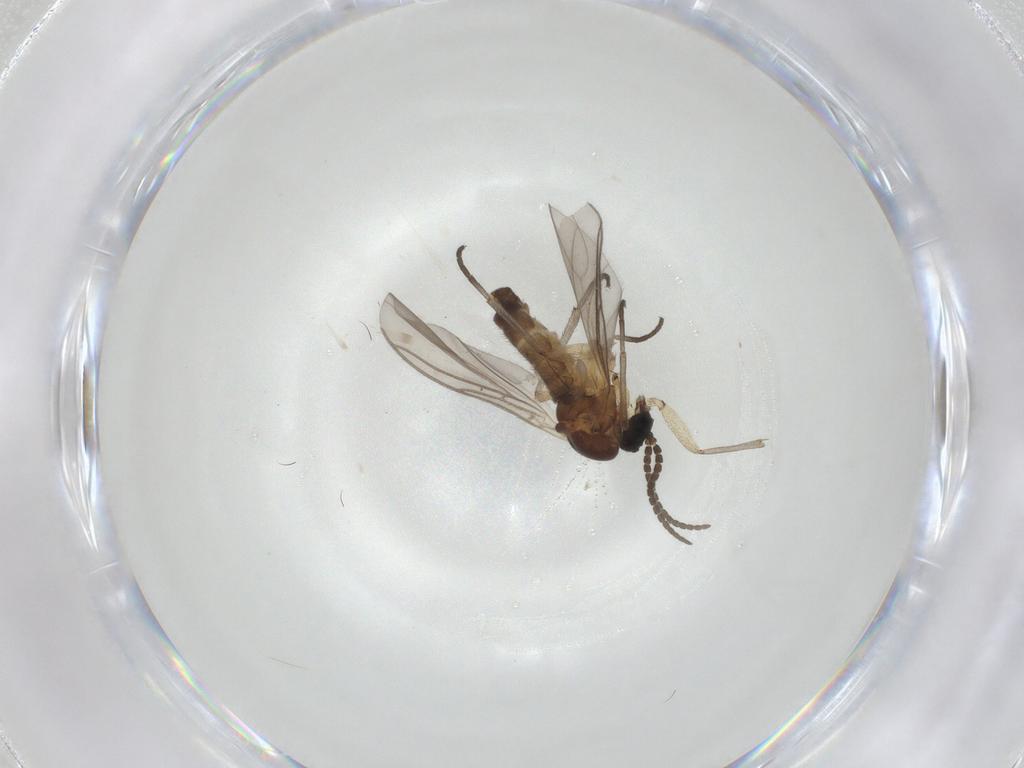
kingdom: Animalia
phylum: Arthropoda
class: Insecta
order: Diptera
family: Sciaridae
